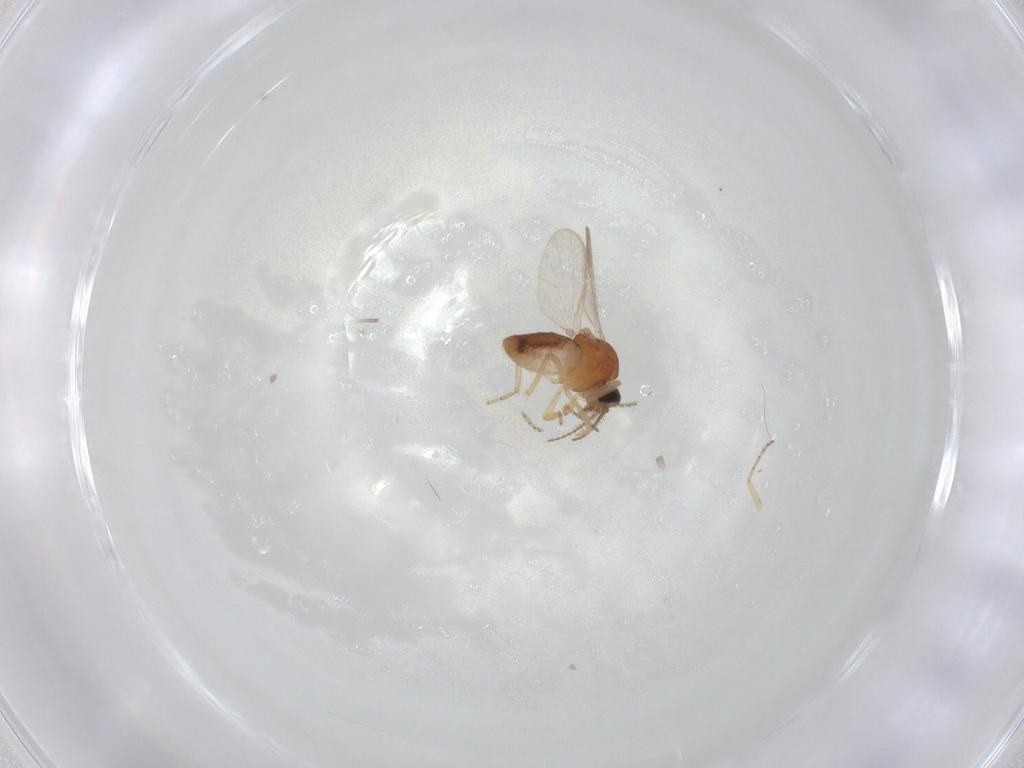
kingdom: Animalia
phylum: Arthropoda
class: Insecta
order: Diptera
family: Ceratopogonidae
